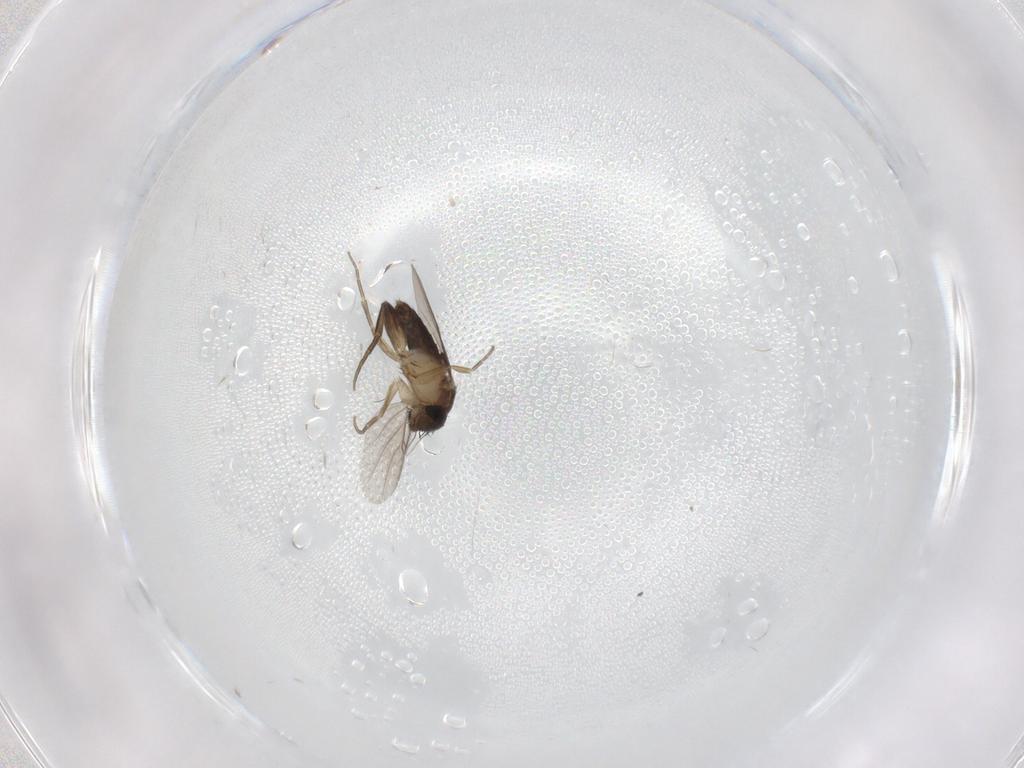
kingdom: Animalia
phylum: Arthropoda
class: Insecta
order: Diptera
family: Phoridae
